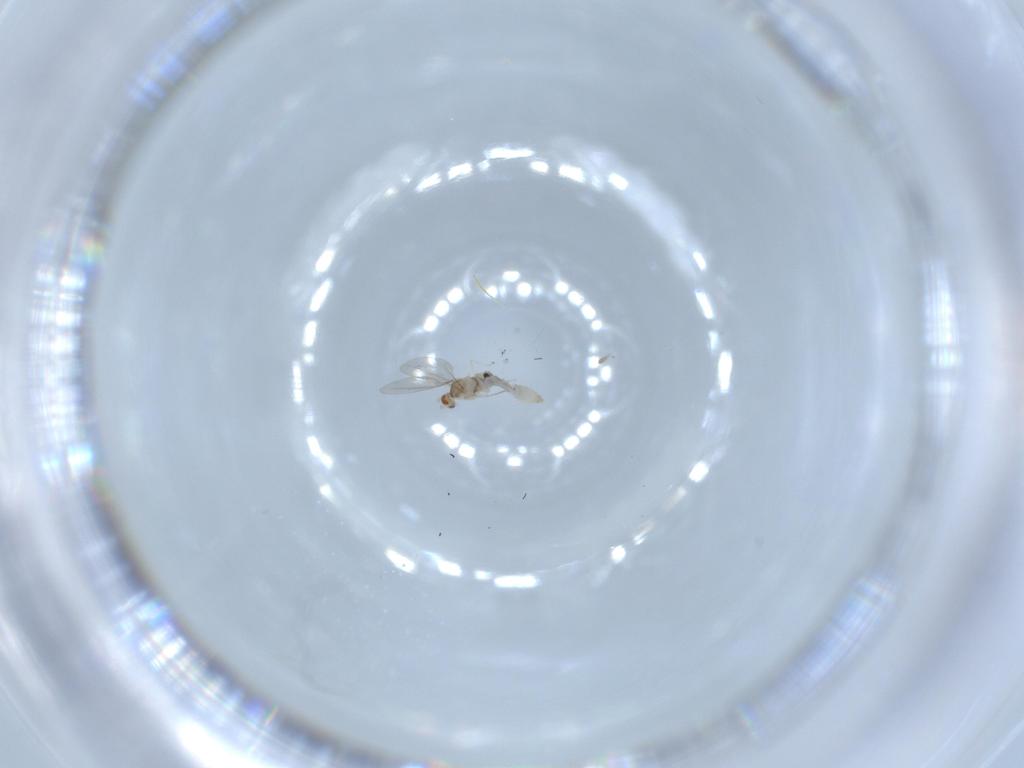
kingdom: Animalia
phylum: Arthropoda
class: Insecta
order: Diptera
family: Cecidomyiidae
